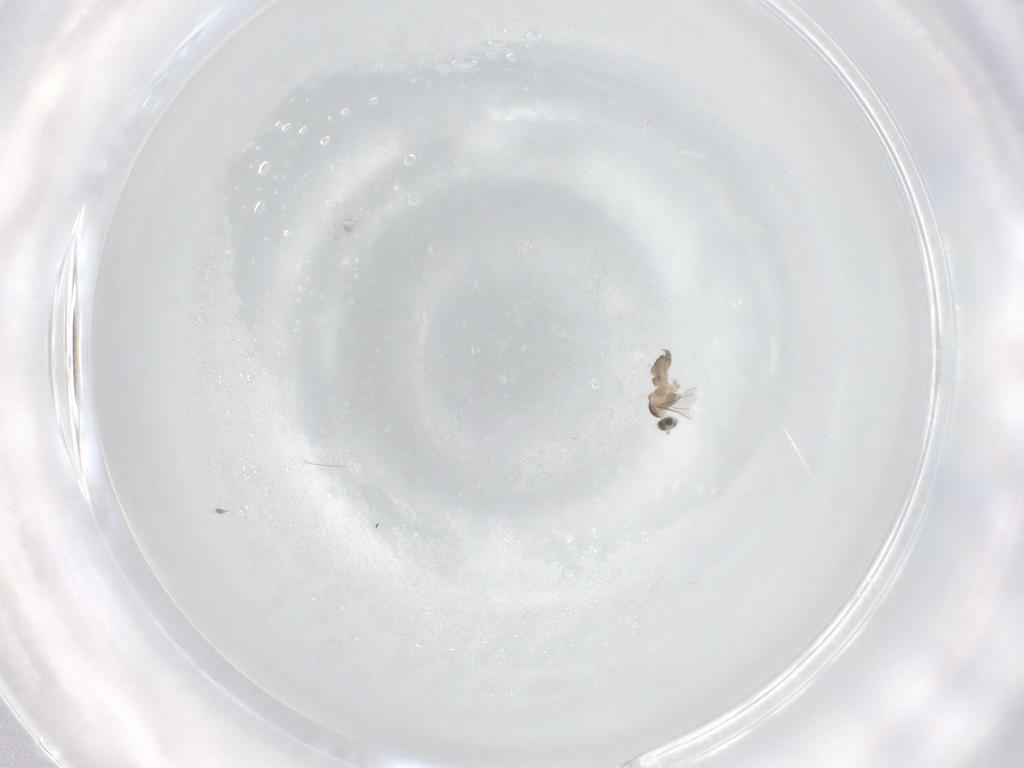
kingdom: Animalia
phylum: Arthropoda
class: Insecta
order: Diptera
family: Cecidomyiidae
